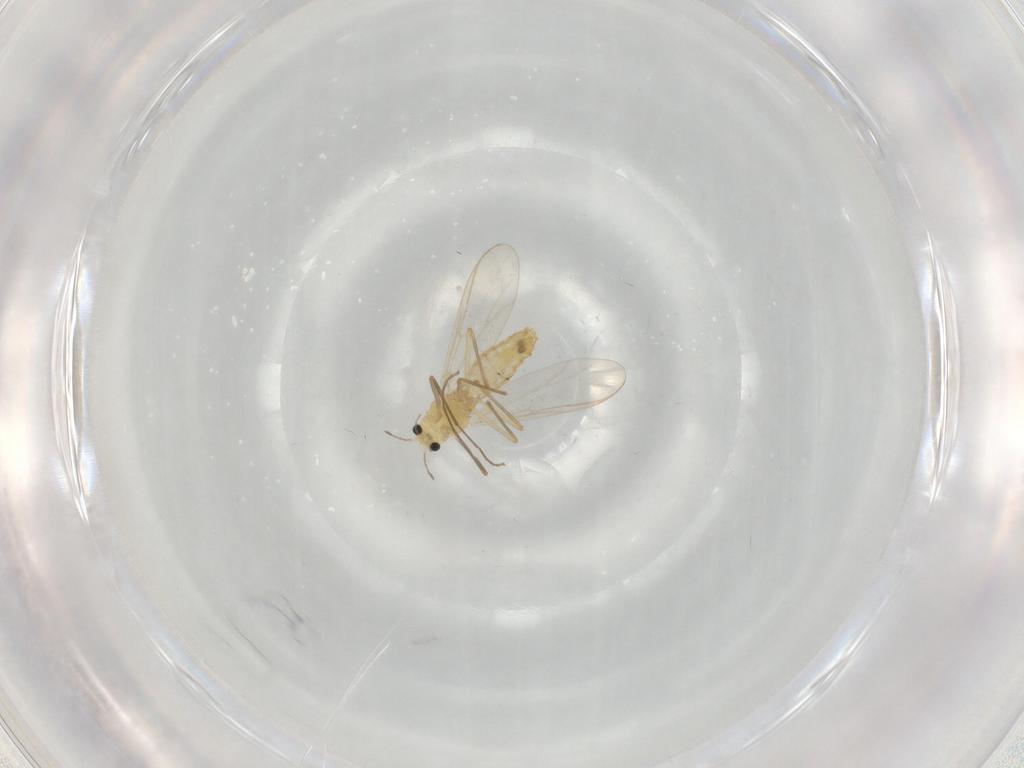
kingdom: Animalia
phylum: Arthropoda
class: Insecta
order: Diptera
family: Chironomidae
